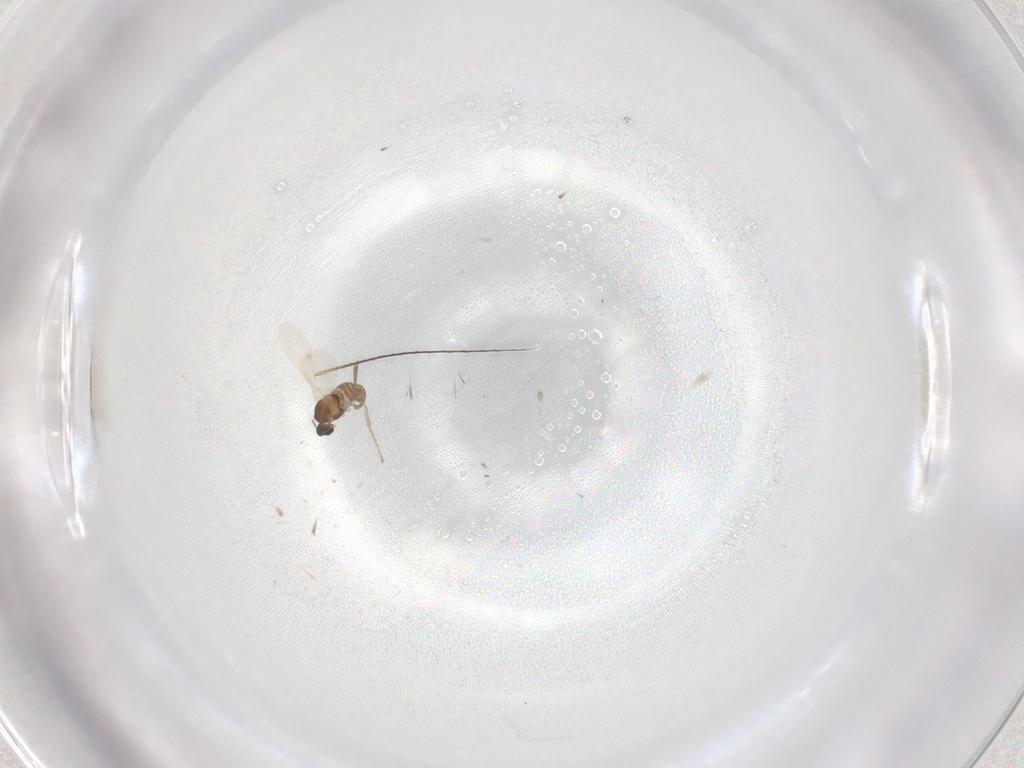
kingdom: Animalia
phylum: Arthropoda
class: Insecta
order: Diptera
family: Cecidomyiidae
